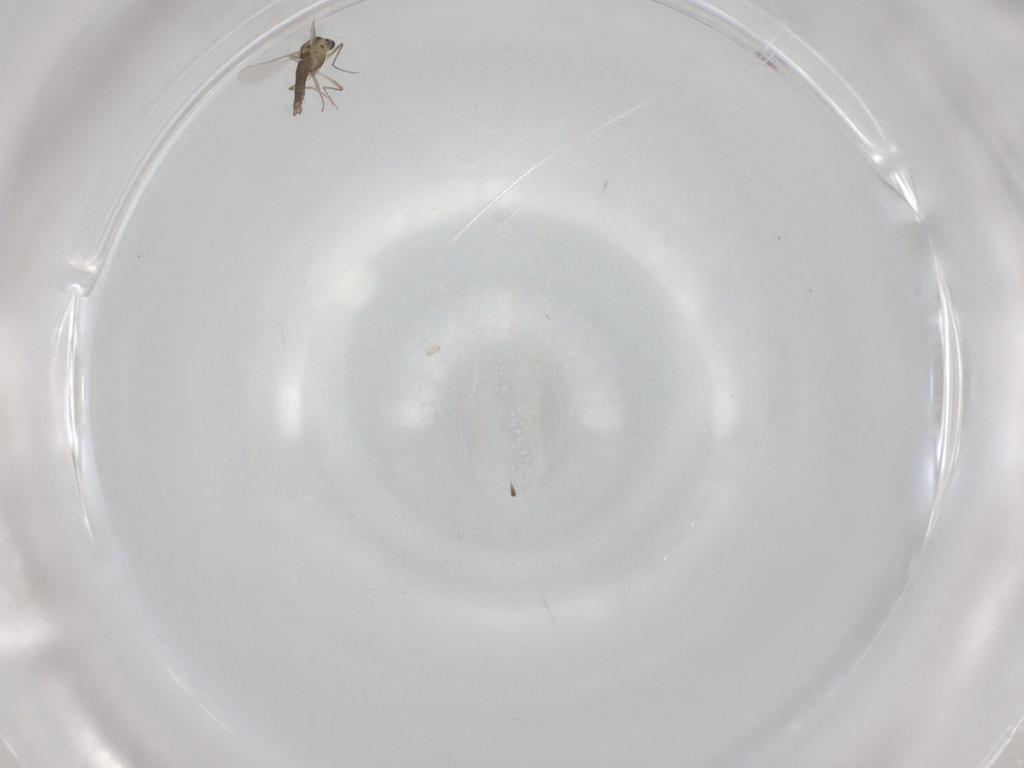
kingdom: Animalia
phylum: Arthropoda
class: Insecta
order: Diptera
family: Chironomidae
